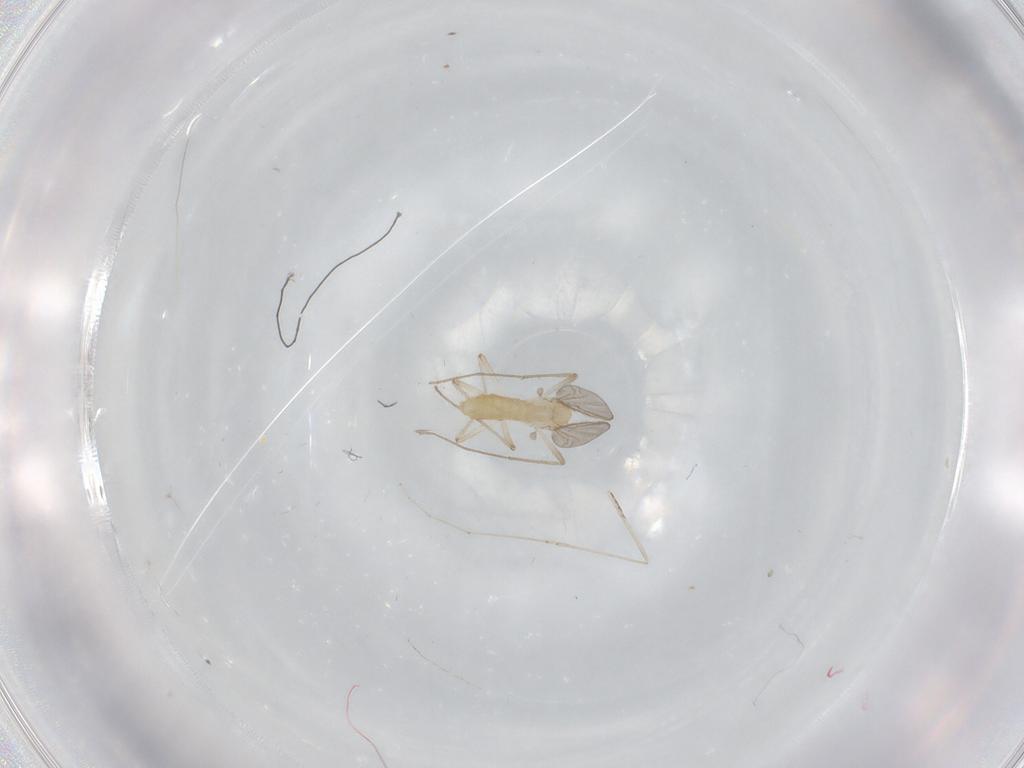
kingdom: Animalia
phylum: Arthropoda
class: Insecta
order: Diptera
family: Chironomidae
